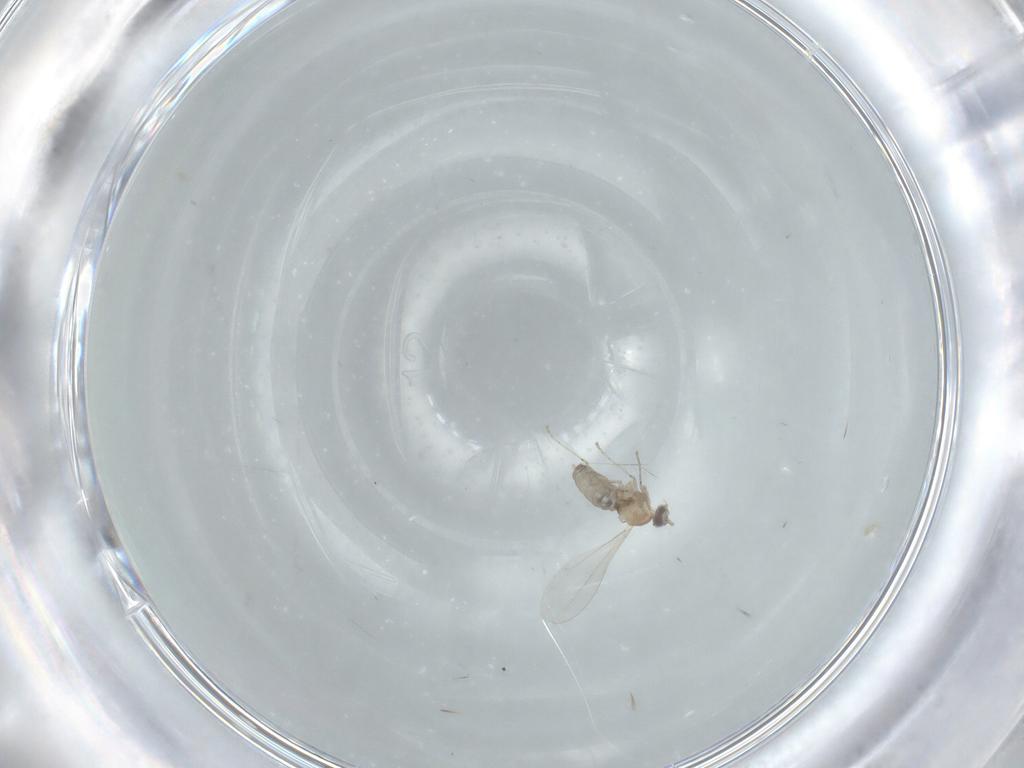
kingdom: Animalia
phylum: Arthropoda
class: Insecta
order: Diptera
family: Cecidomyiidae
